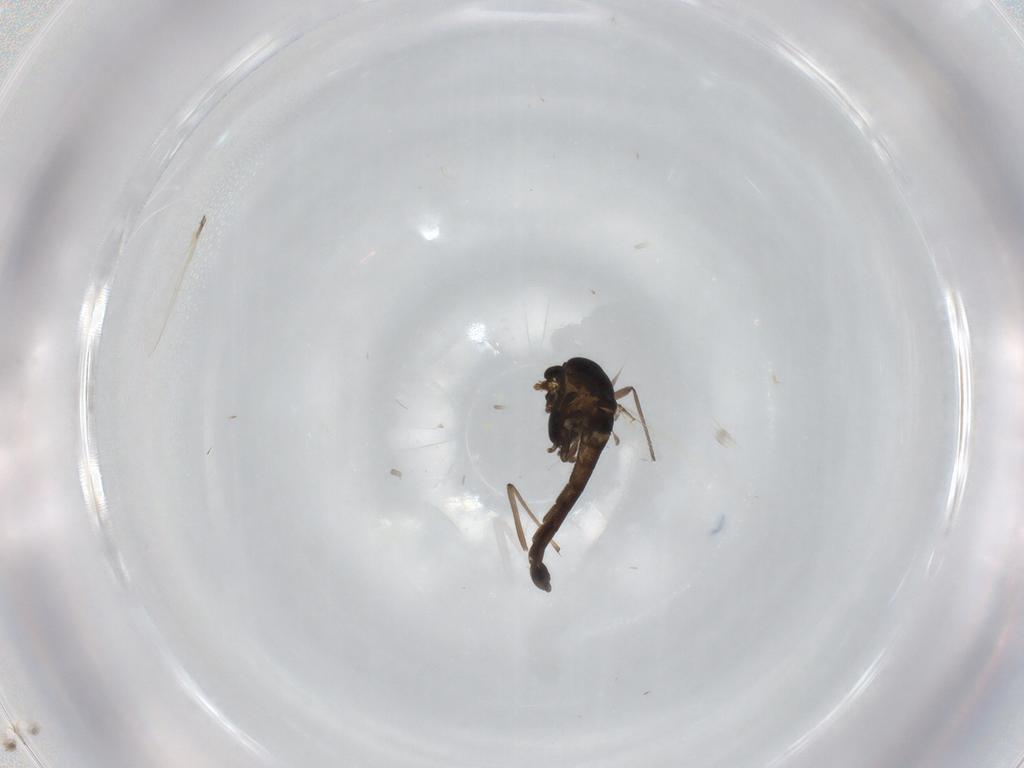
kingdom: Animalia
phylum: Arthropoda
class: Insecta
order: Diptera
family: Chironomidae
